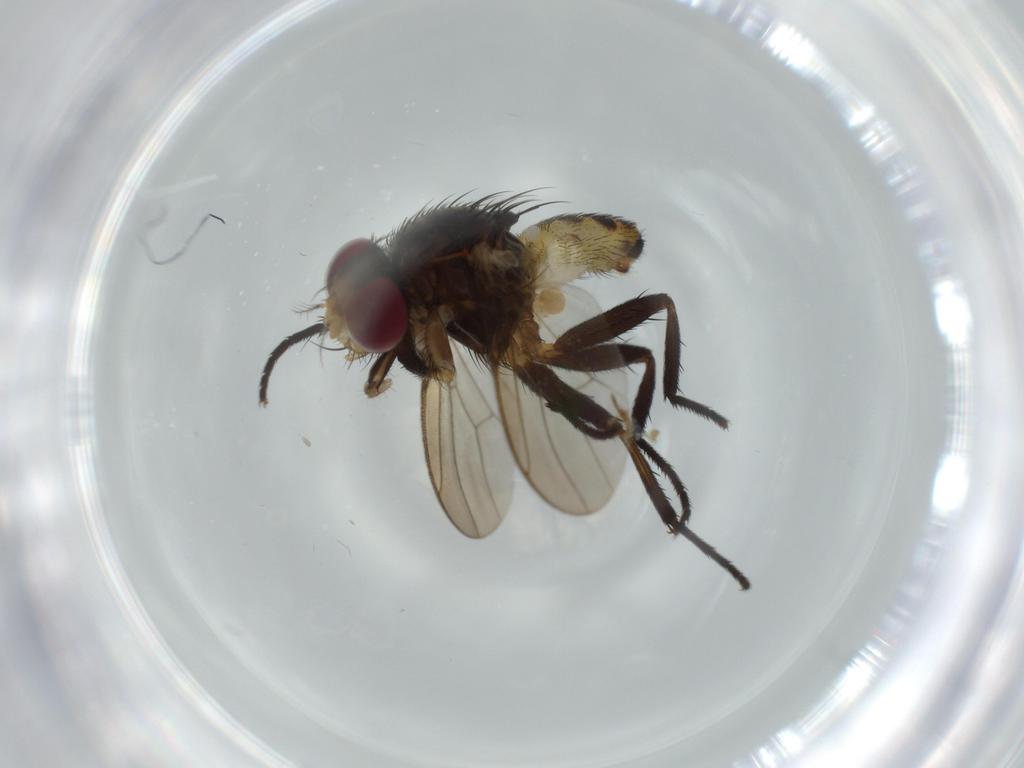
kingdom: Animalia
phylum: Arthropoda
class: Insecta
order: Diptera
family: Anthomyiidae
